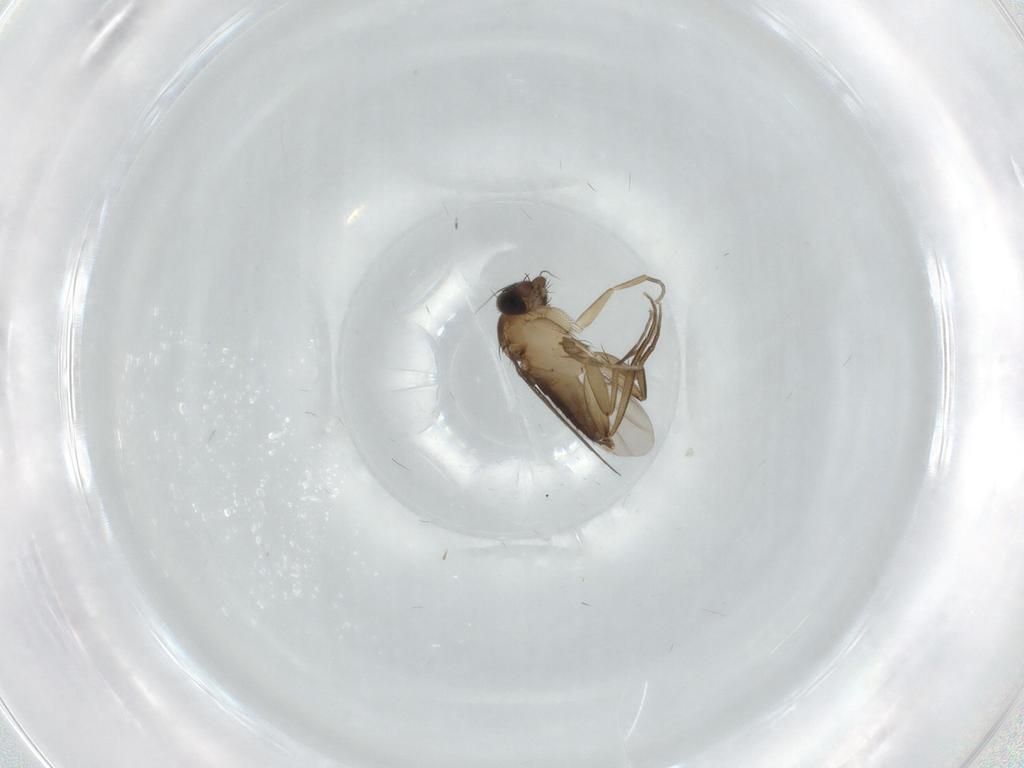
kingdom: Animalia
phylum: Arthropoda
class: Insecta
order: Diptera
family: Phoridae
